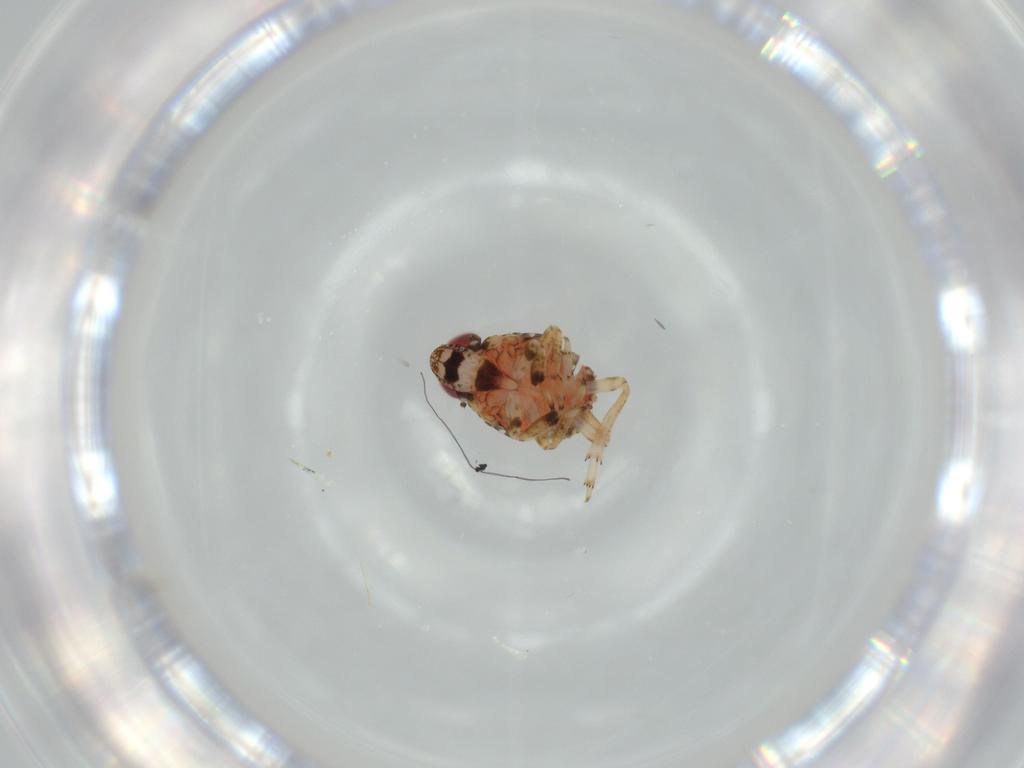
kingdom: Animalia
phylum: Arthropoda
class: Insecta
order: Hemiptera
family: Issidae
